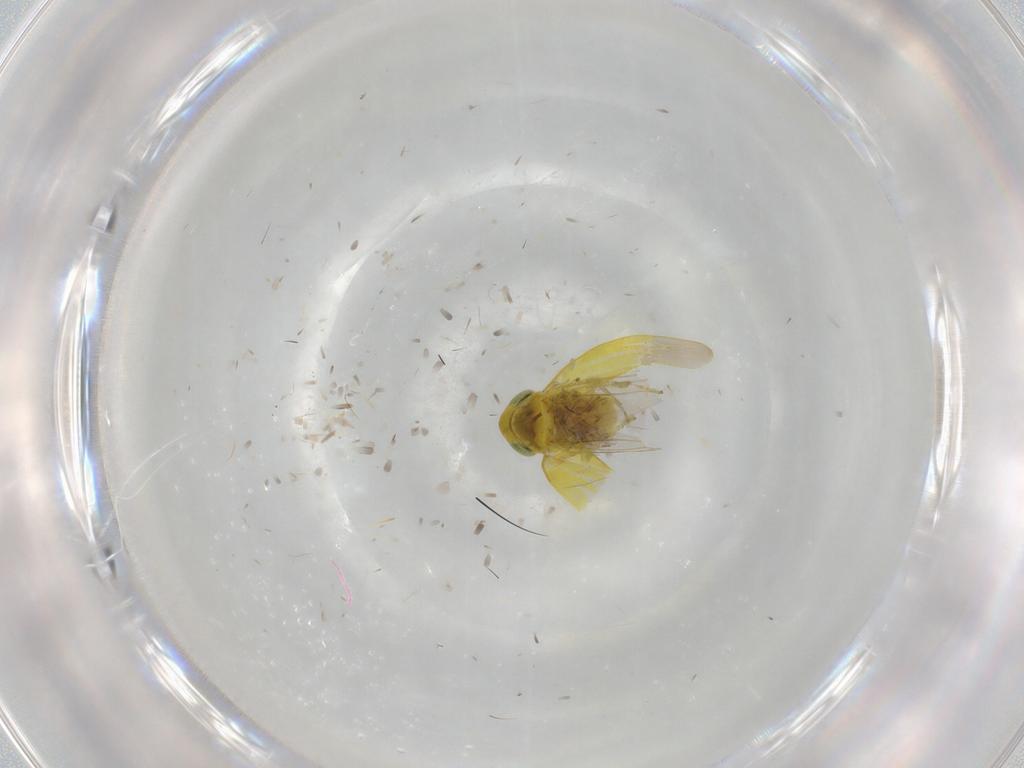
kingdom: Animalia
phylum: Arthropoda
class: Insecta
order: Hemiptera
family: Cicadellidae
